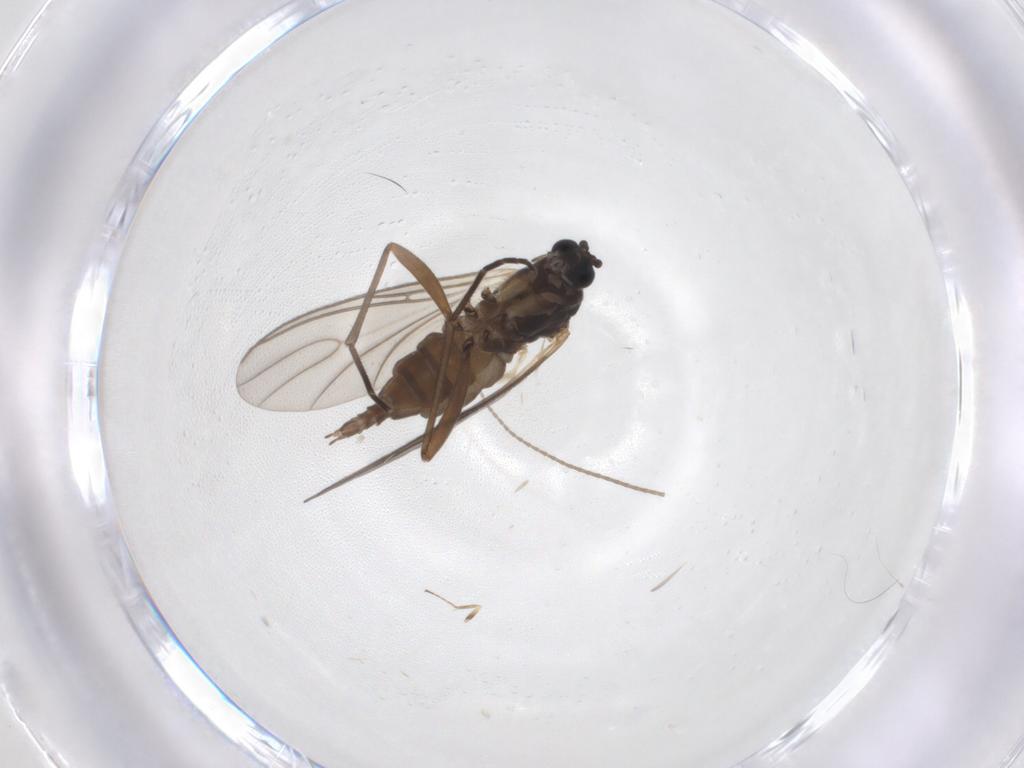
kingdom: Animalia
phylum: Arthropoda
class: Insecta
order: Diptera
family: Sciaridae
